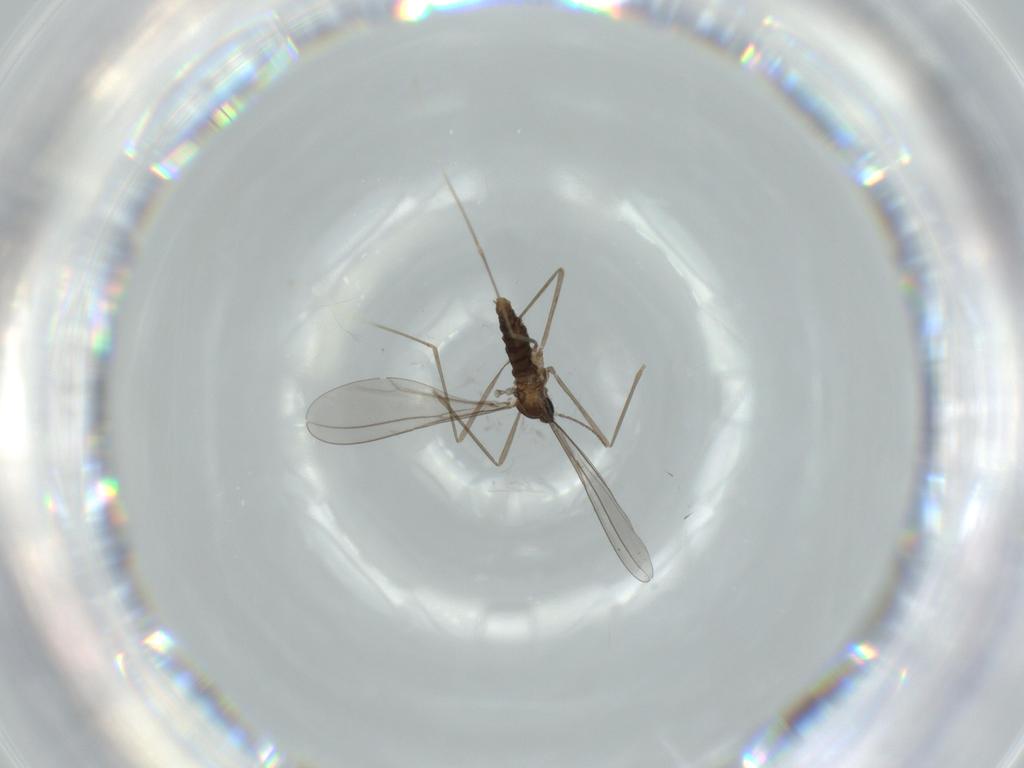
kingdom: Animalia
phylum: Arthropoda
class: Insecta
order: Diptera
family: Cecidomyiidae
